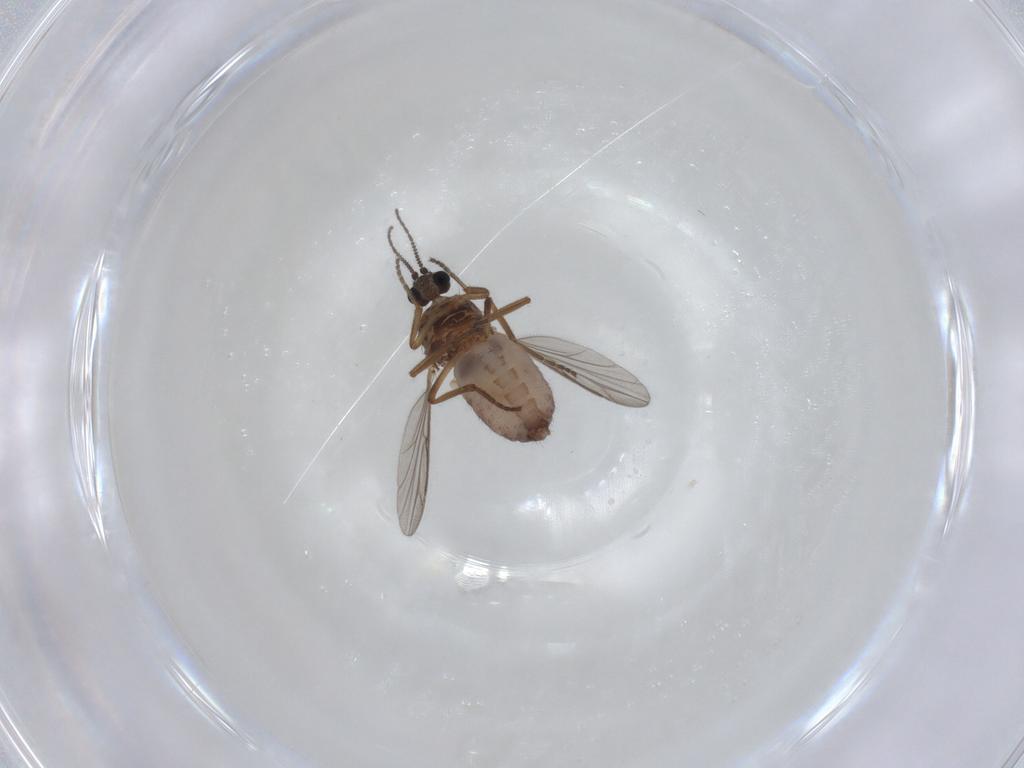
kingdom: Animalia
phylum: Arthropoda
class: Insecta
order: Diptera
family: Ceratopogonidae
